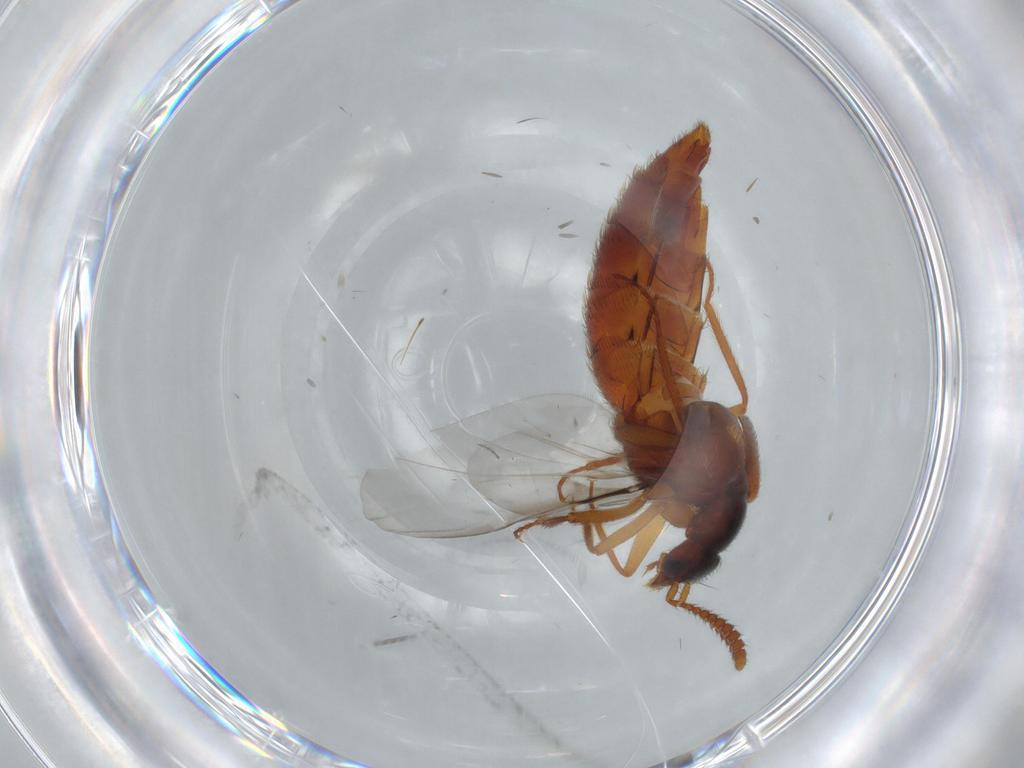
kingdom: Animalia
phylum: Arthropoda
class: Insecta
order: Coleoptera
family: Staphylinidae
